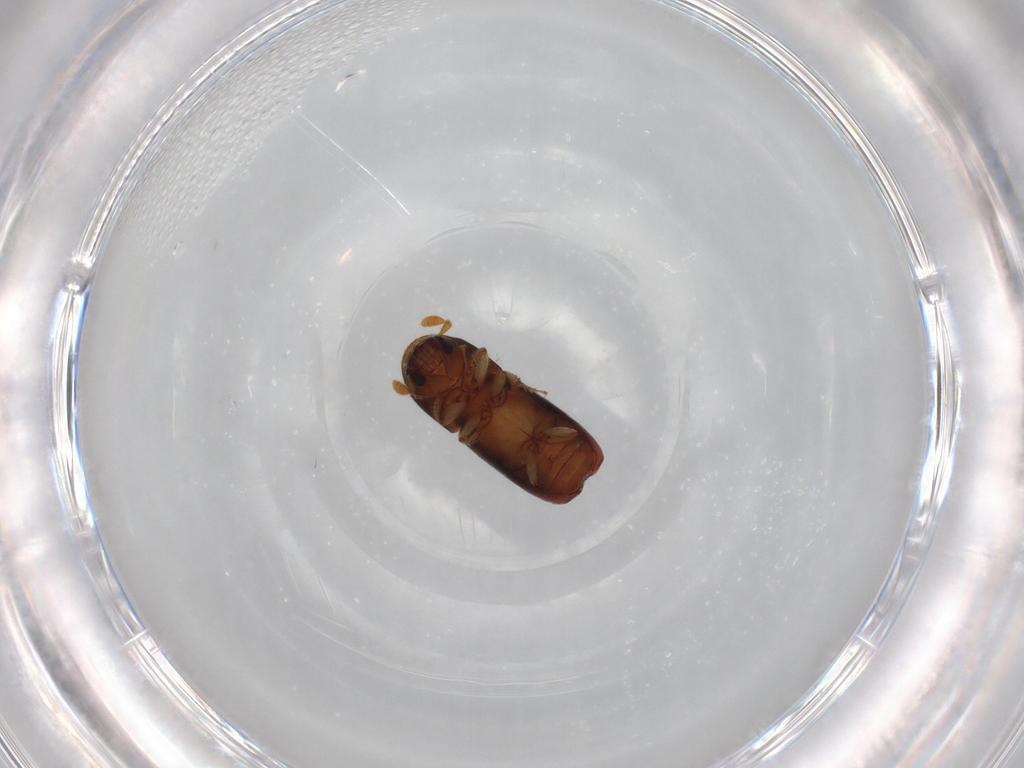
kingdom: Animalia
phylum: Arthropoda
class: Insecta
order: Coleoptera
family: Curculionidae
